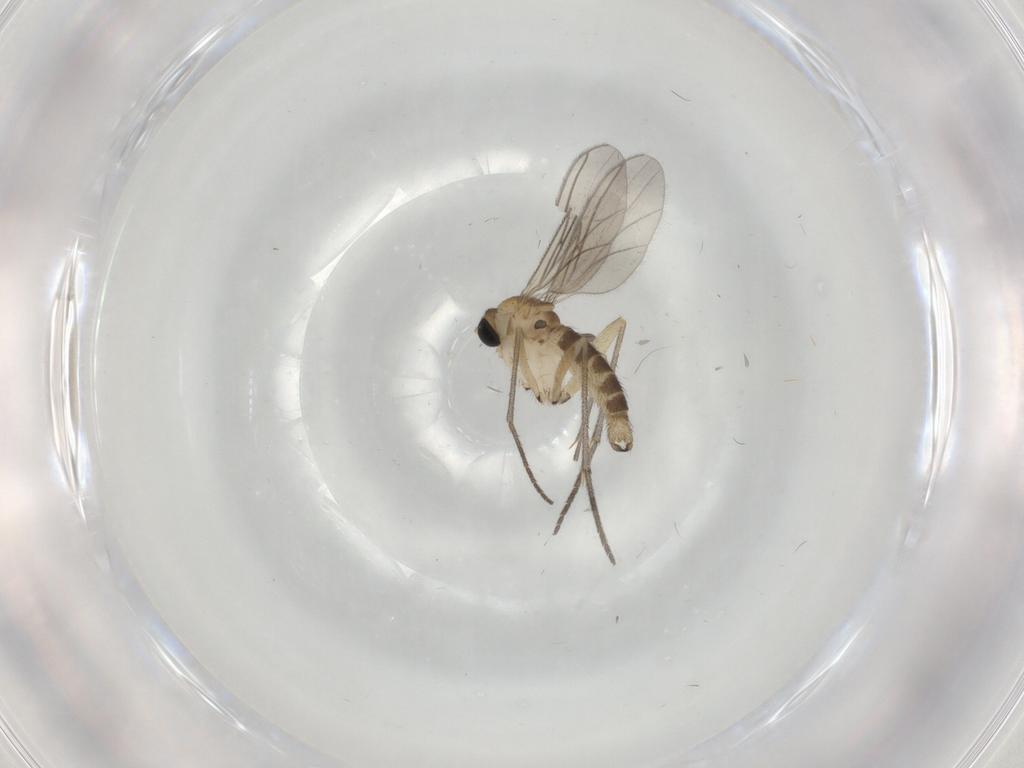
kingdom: Animalia
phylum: Arthropoda
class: Insecta
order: Diptera
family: Sciaridae
